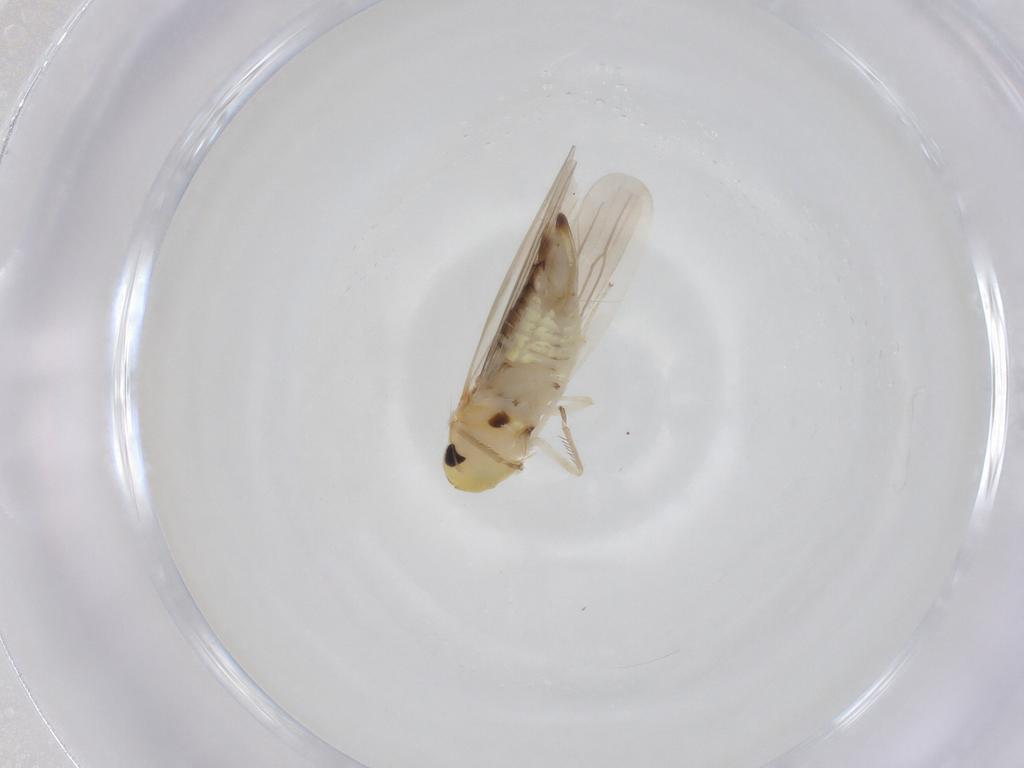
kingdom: Animalia
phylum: Arthropoda
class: Insecta
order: Hemiptera
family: Cicadellidae
